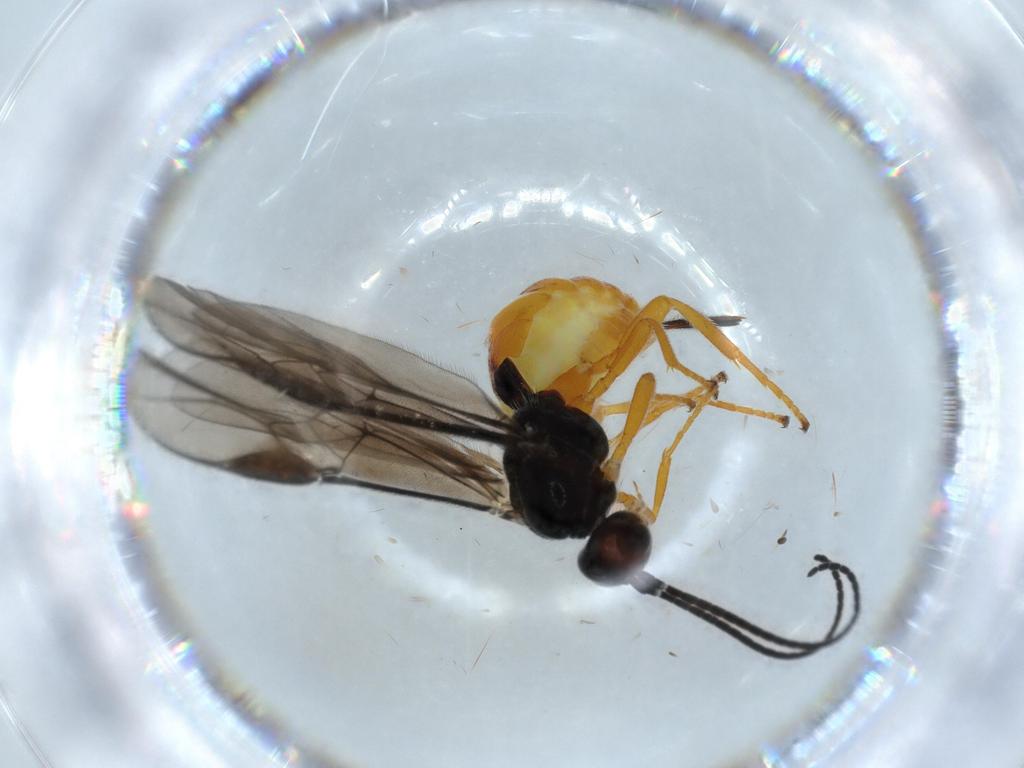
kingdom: Animalia
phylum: Arthropoda
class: Insecta
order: Hymenoptera
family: Braconidae
